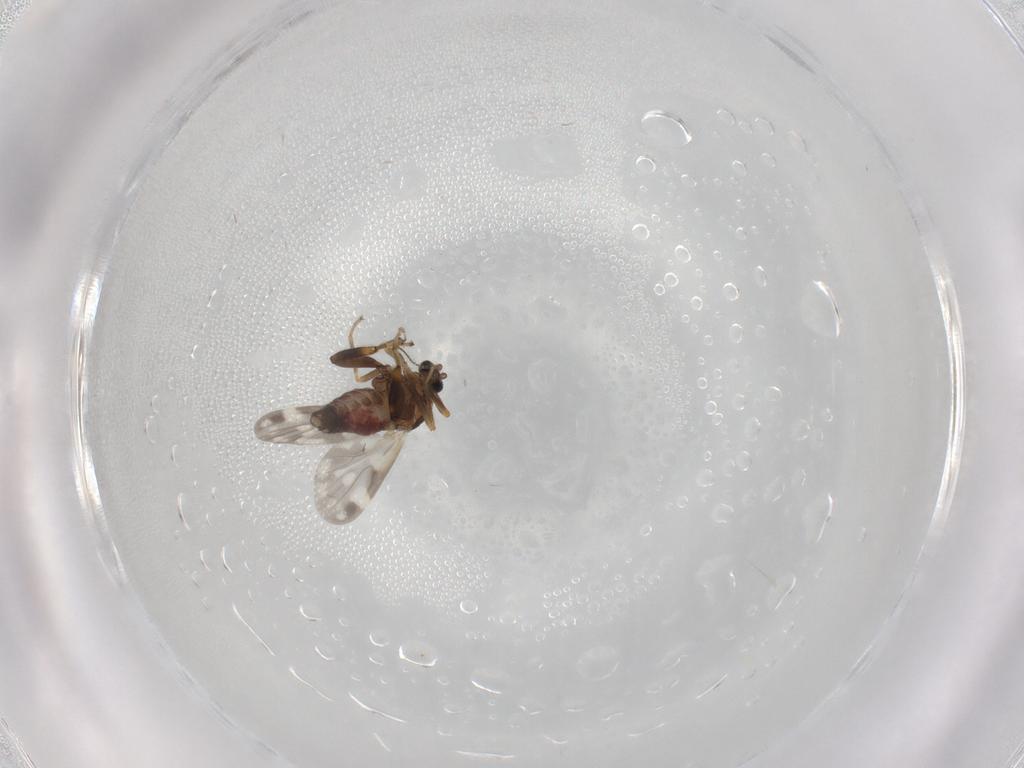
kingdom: Animalia
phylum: Arthropoda
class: Insecta
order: Diptera
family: Ceratopogonidae
